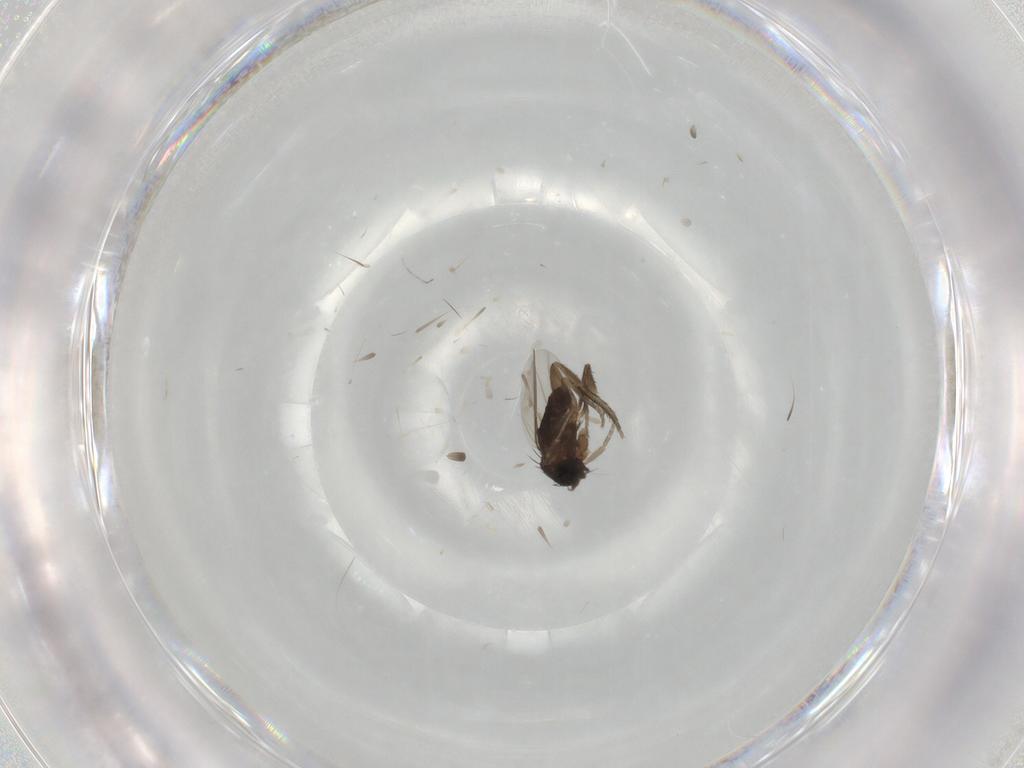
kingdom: Animalia
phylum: Arthropoda
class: Insecta
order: Diptera
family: Phoridae
